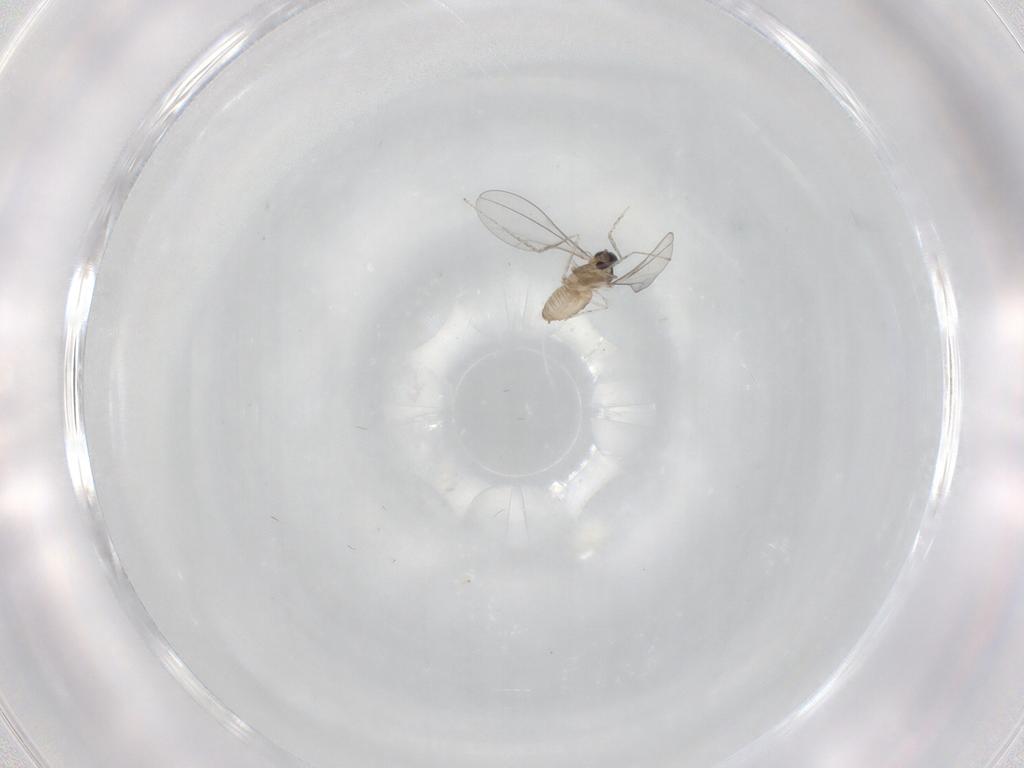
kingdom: Animalia
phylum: Arthropoda
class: Insecta
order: Diptera
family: Cecidomyiidae
